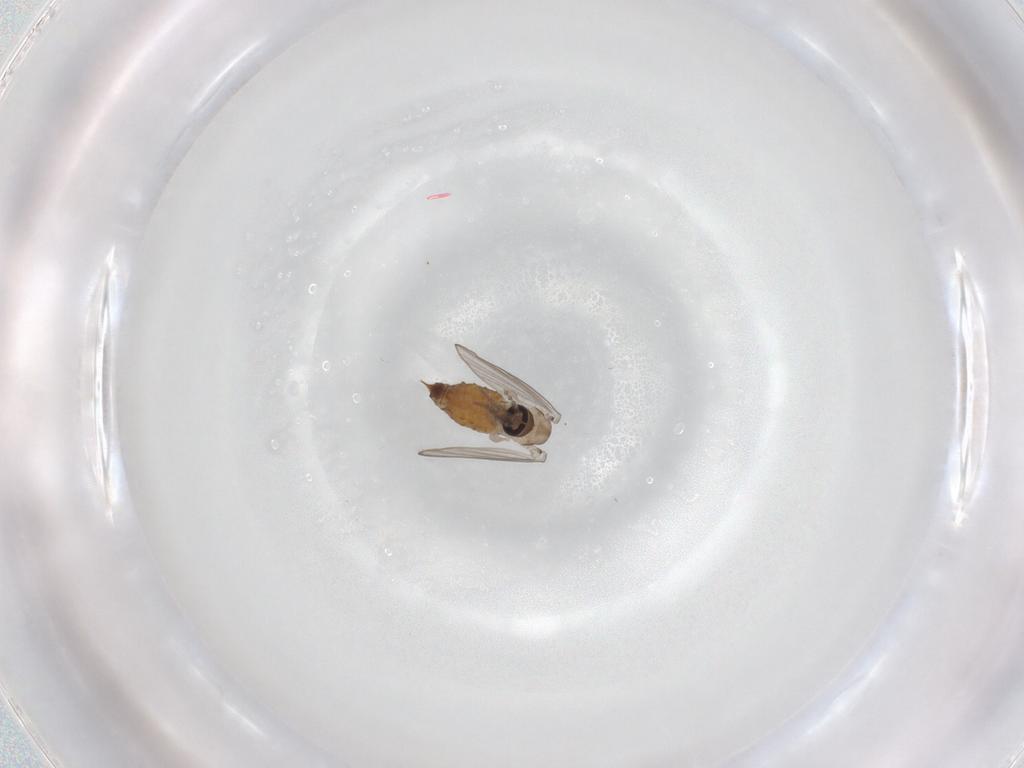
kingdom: Animalia
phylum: Arthropoda
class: Insecta
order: Diptera
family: Psychodidae
